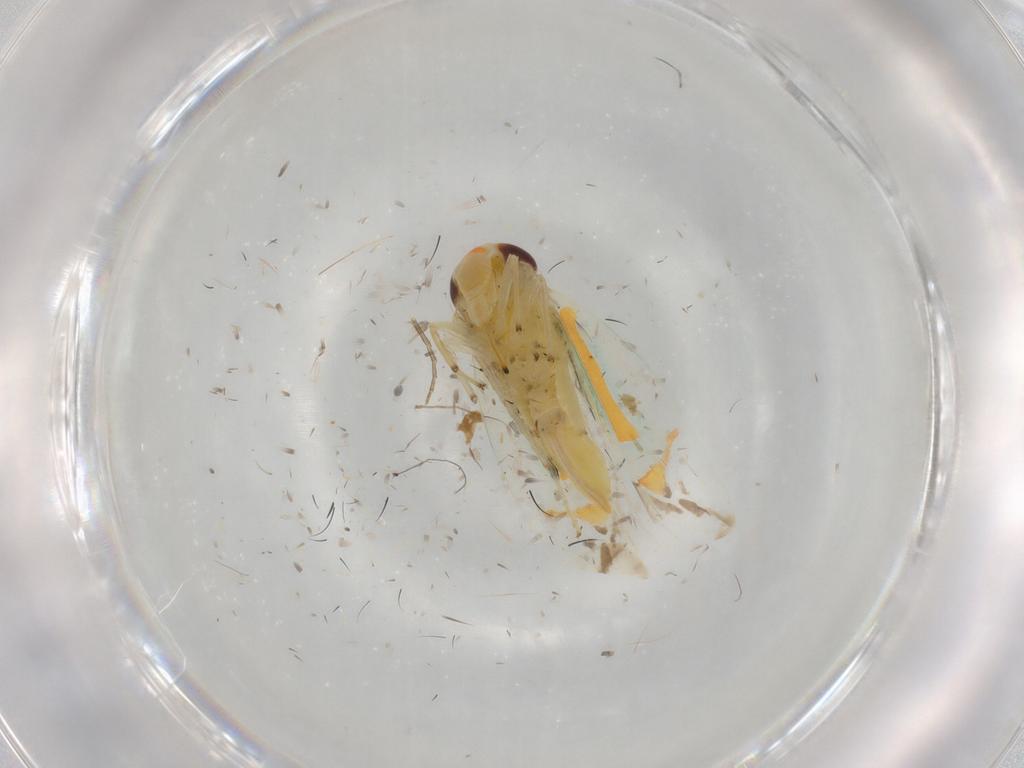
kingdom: Animalia
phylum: Arthropoda
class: Insecta
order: Hemiptera
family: Cicadellidae
